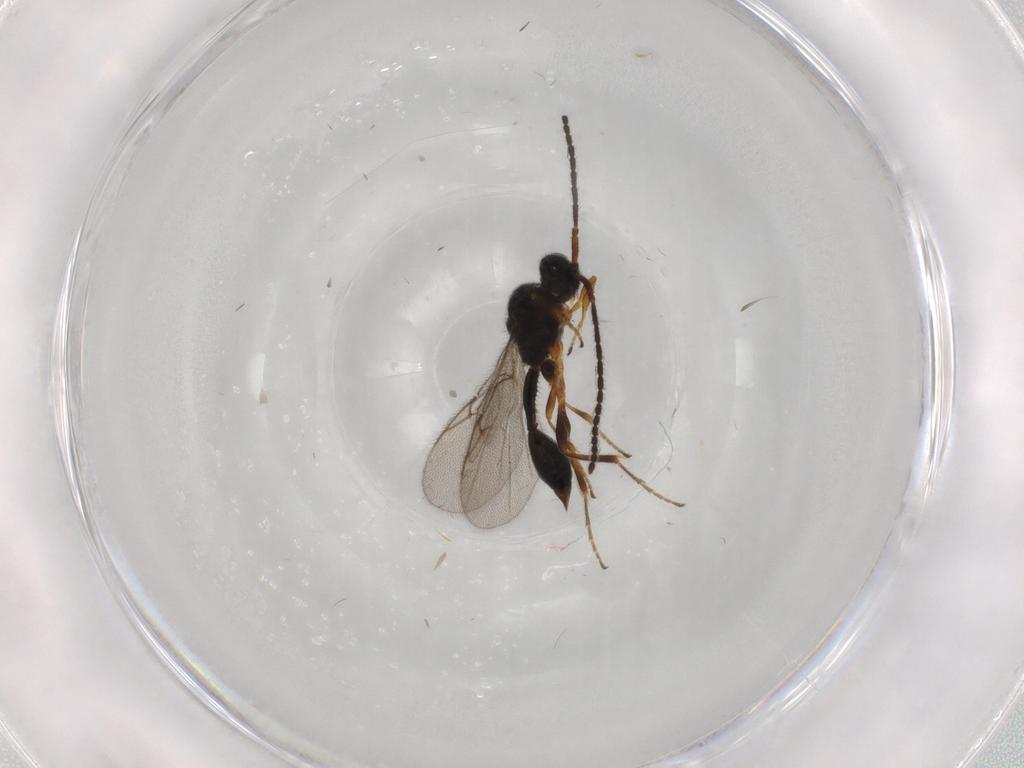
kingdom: Animalia
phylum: Arthropoda
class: Insecta
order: Hymenoptera
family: Diapriidae
